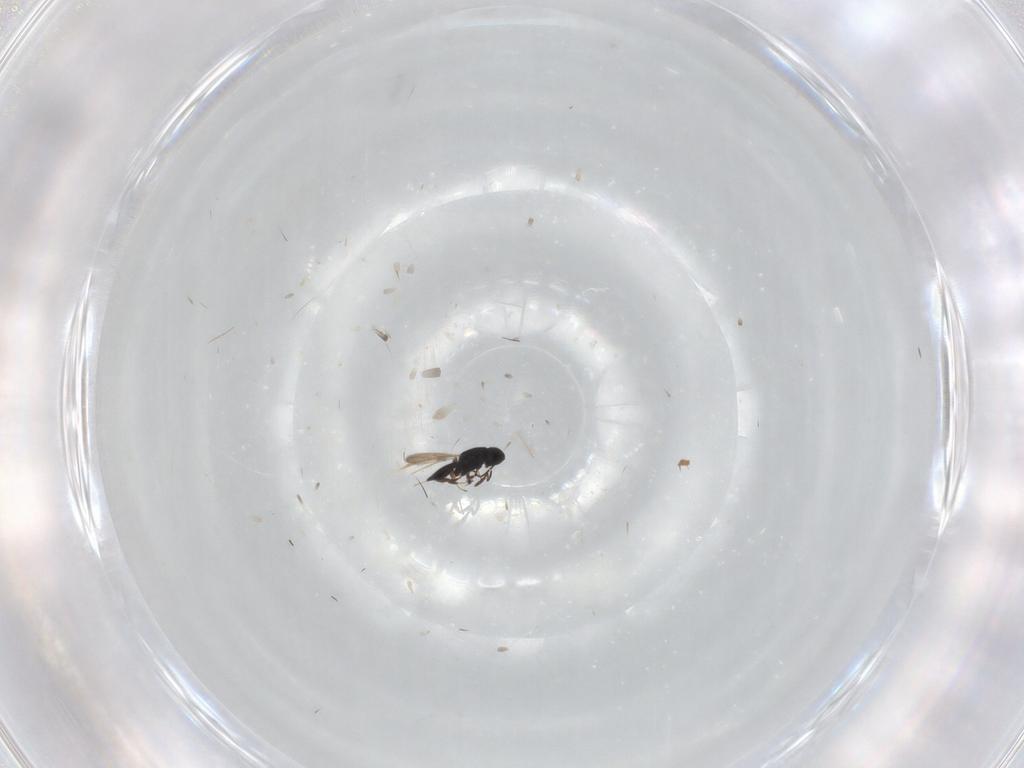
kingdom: Animalia
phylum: Arthropoda
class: Insecta
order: Hymenoptera
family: Scelionidae
